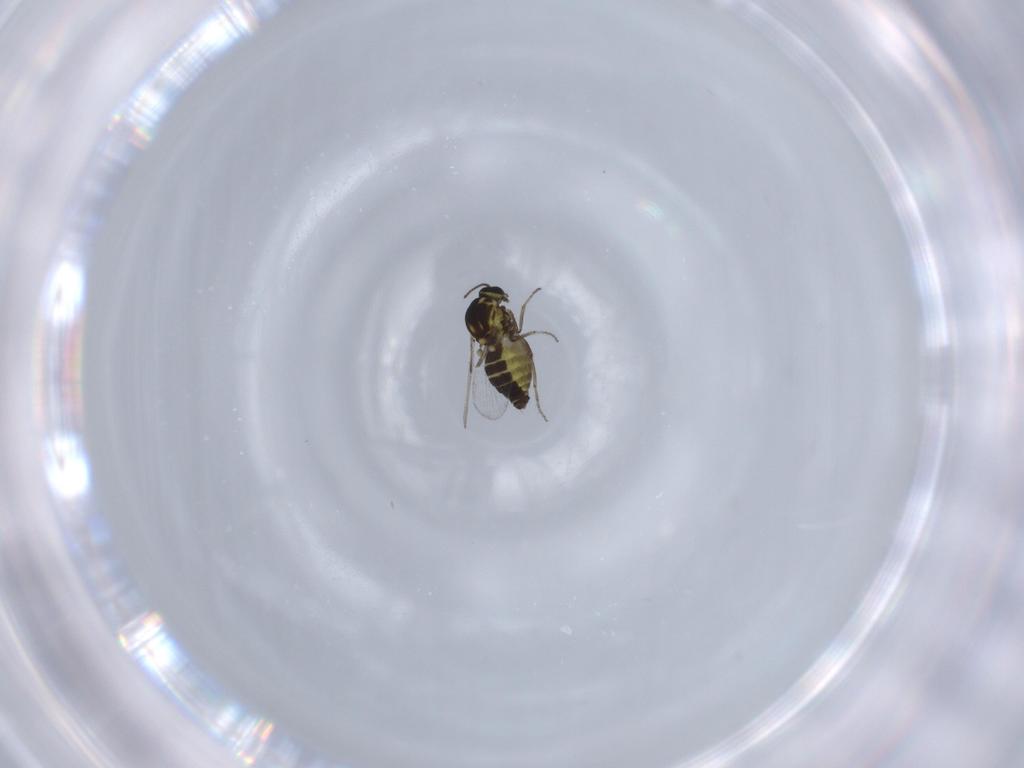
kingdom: Animalia
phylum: Arthropoda
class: Insecta
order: Diptera
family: Ceratopogonidae
